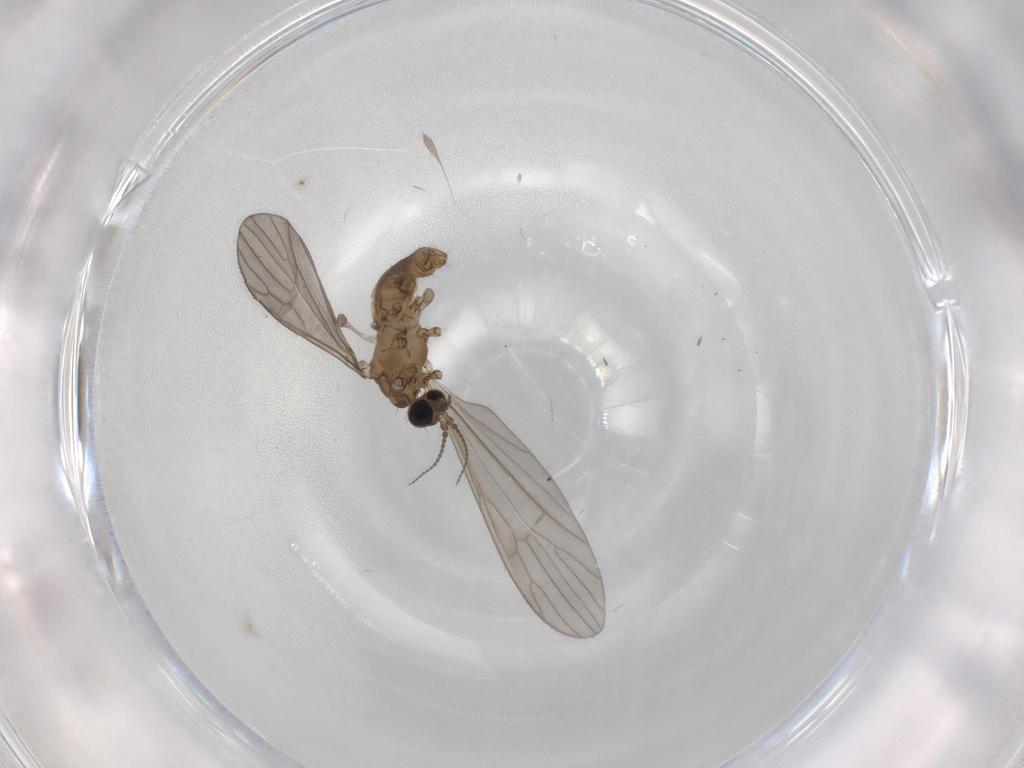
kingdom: Animalia
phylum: Arthropoda
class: Insecta
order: Diptera
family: Limoniidae
